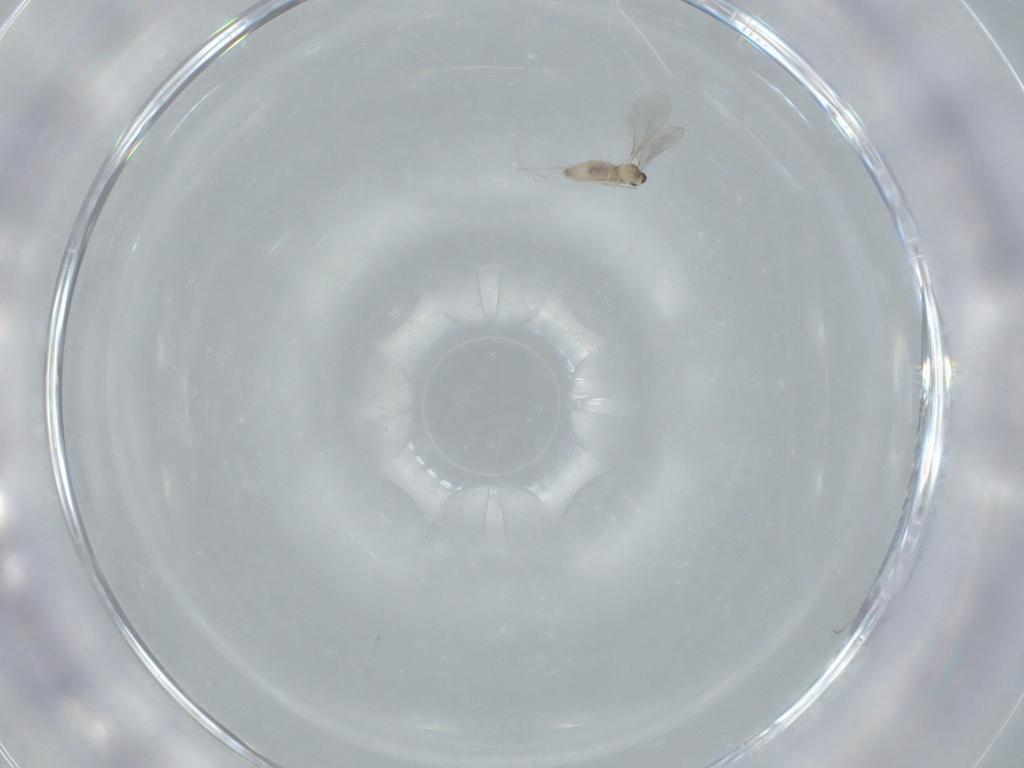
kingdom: Animalia
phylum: Arthropoda
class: Insecta
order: Diptera
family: Cecidomyiidae
